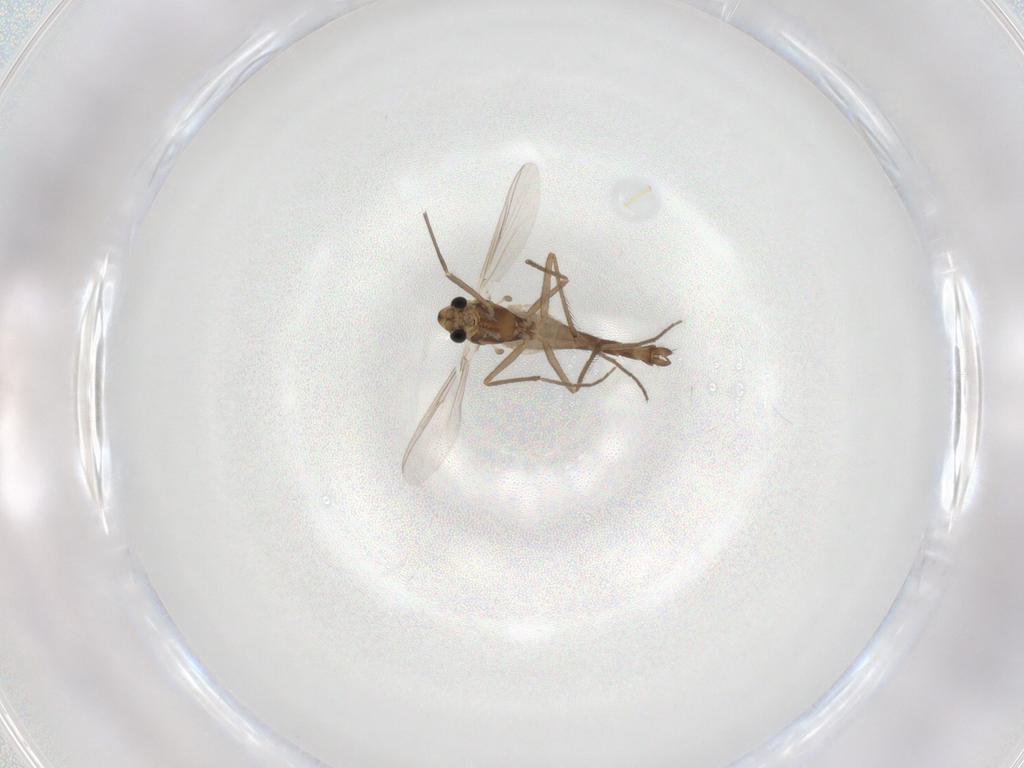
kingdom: Animalia
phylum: Arthropoda
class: Insecta
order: Diptera
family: Chironomidae
